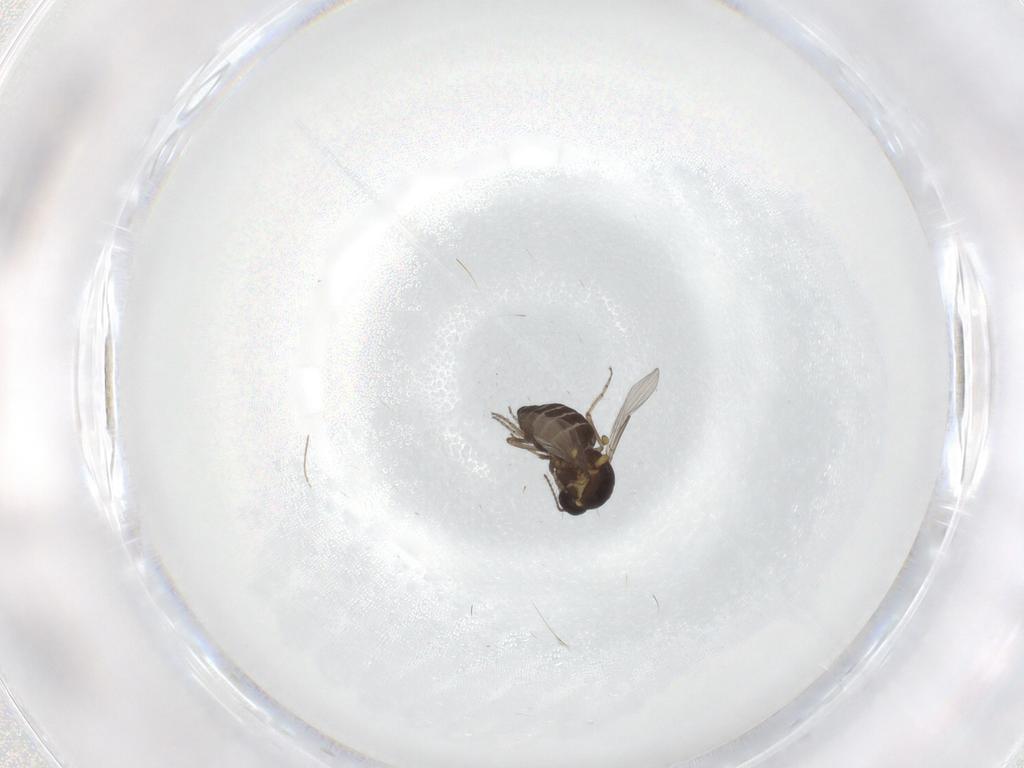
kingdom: Animalia
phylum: Arthropoda
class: Insecta
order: Diptera
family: Ceratopogonidae
